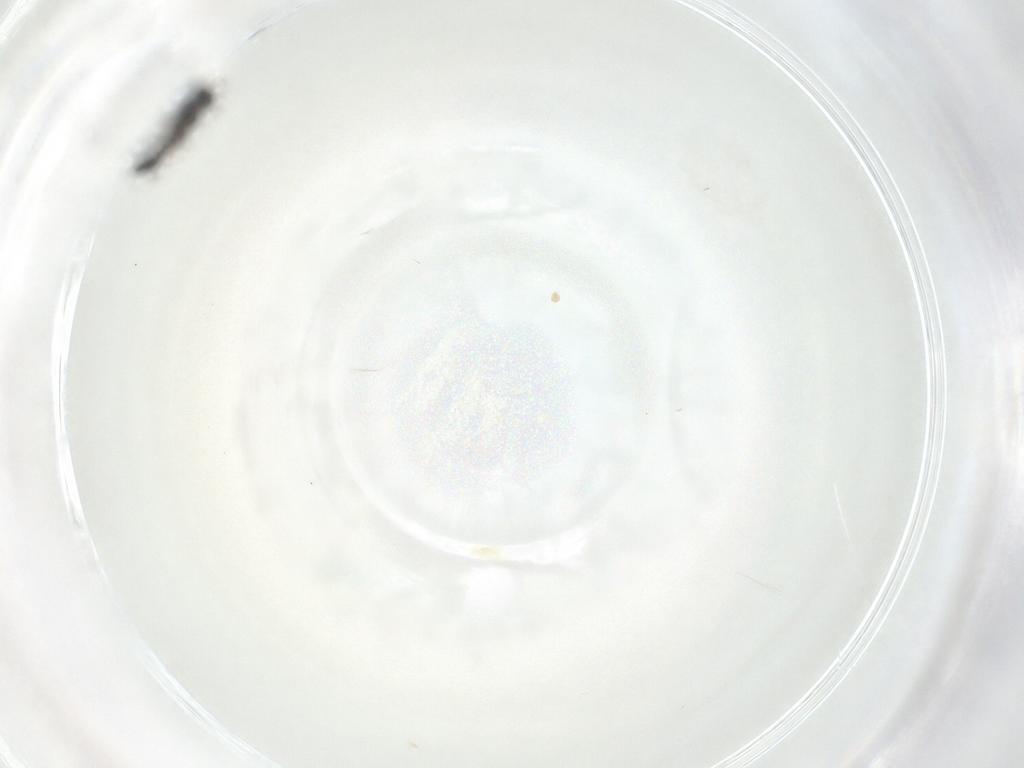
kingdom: Animalia
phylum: Arthropoda
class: Insecta
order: Hymenoptera
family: Scelionidae
